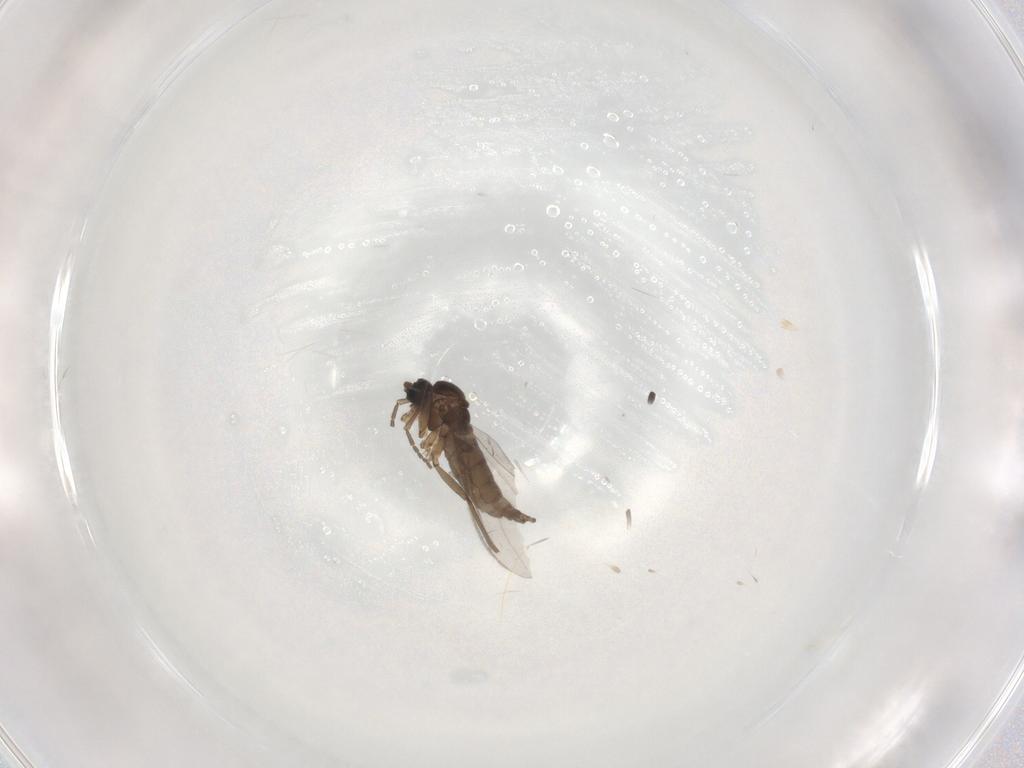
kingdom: Animalia
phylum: Arthropoda
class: Insecta
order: Diptera
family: Sciaridae
